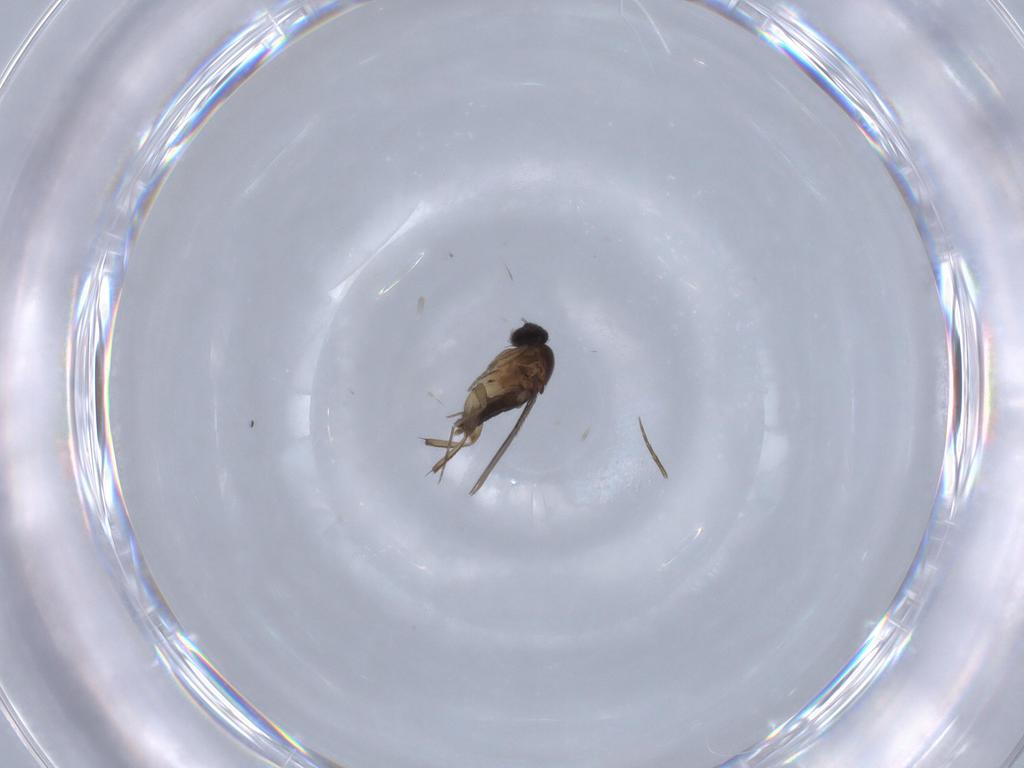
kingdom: Animalia
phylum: Arthropoda
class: Insecta
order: Diptera
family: Phoridae
